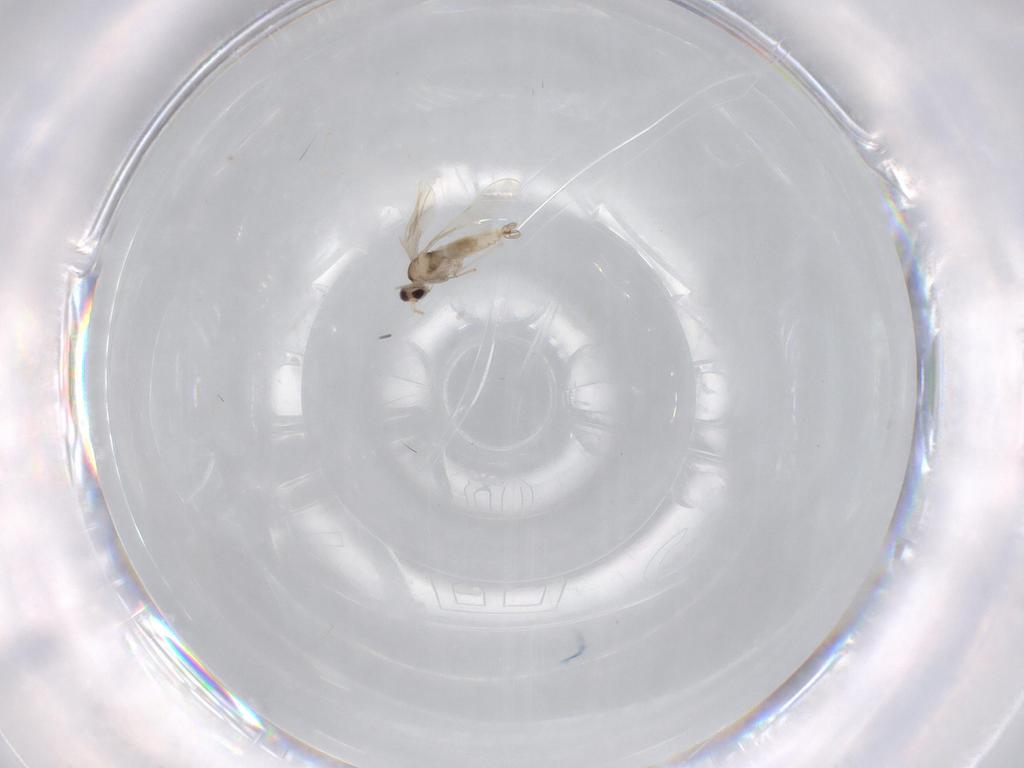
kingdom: Animalia
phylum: Arthropoda
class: Insecta
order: Diptera
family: Cecidomyiidae
